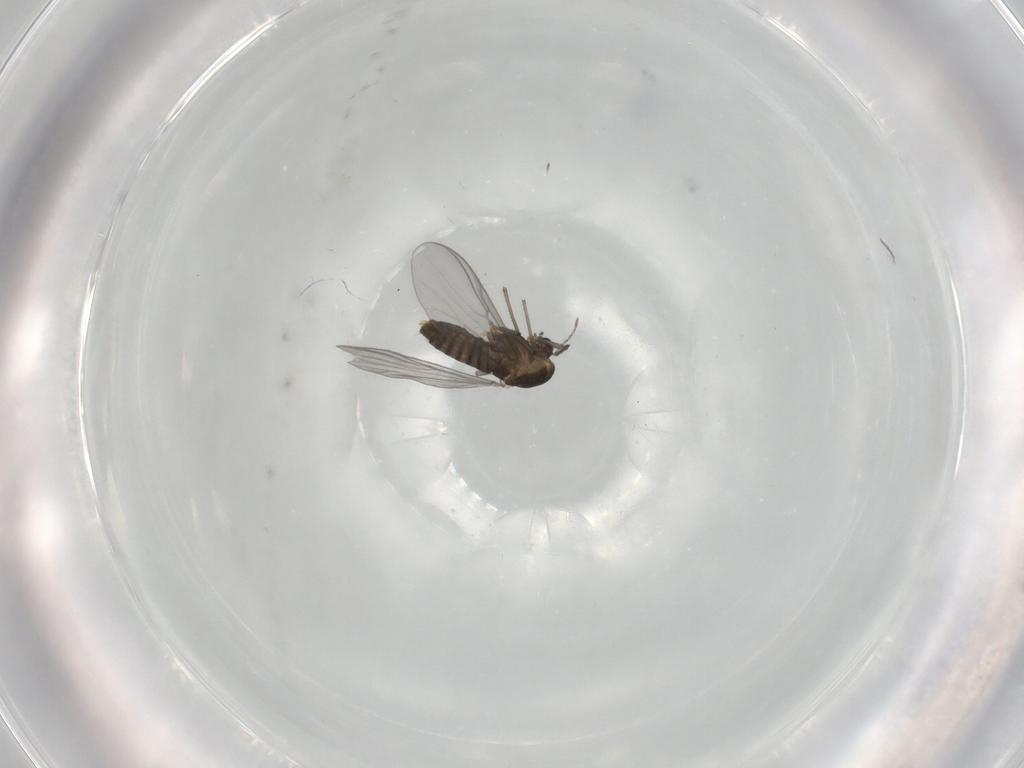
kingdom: Animalia
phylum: Arthropoda
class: Insecta
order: Diptera
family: Chironomidae
